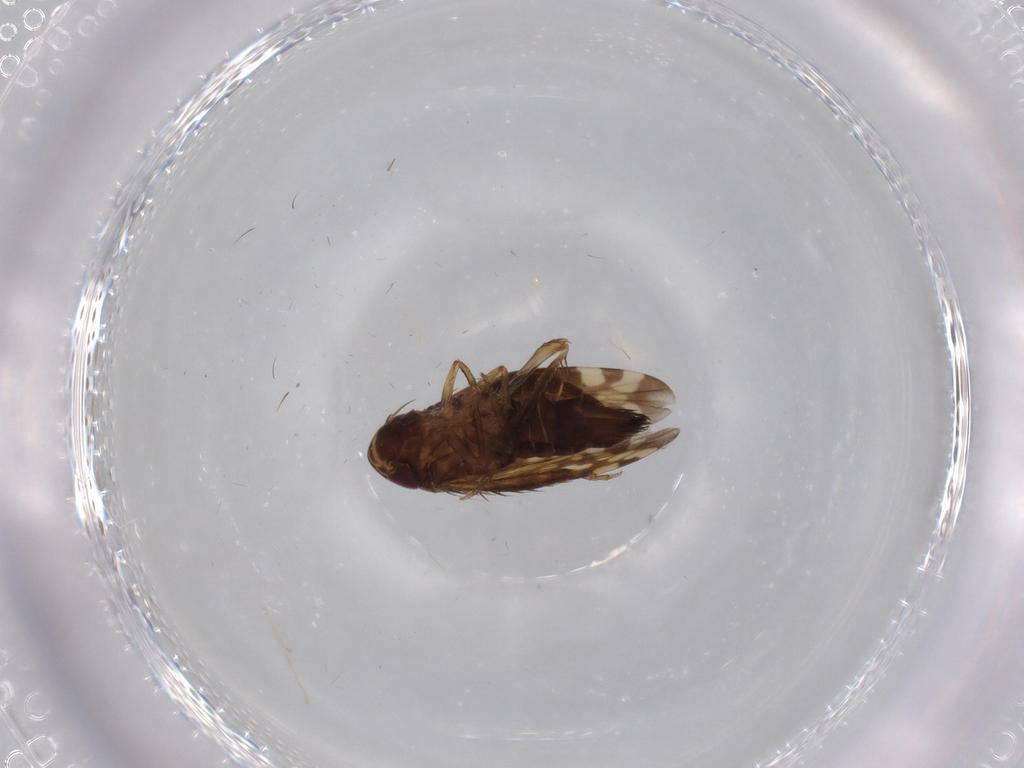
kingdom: Animalia
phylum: Arthropoda
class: Insecta
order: Hemiptera
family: Cicadellidae
